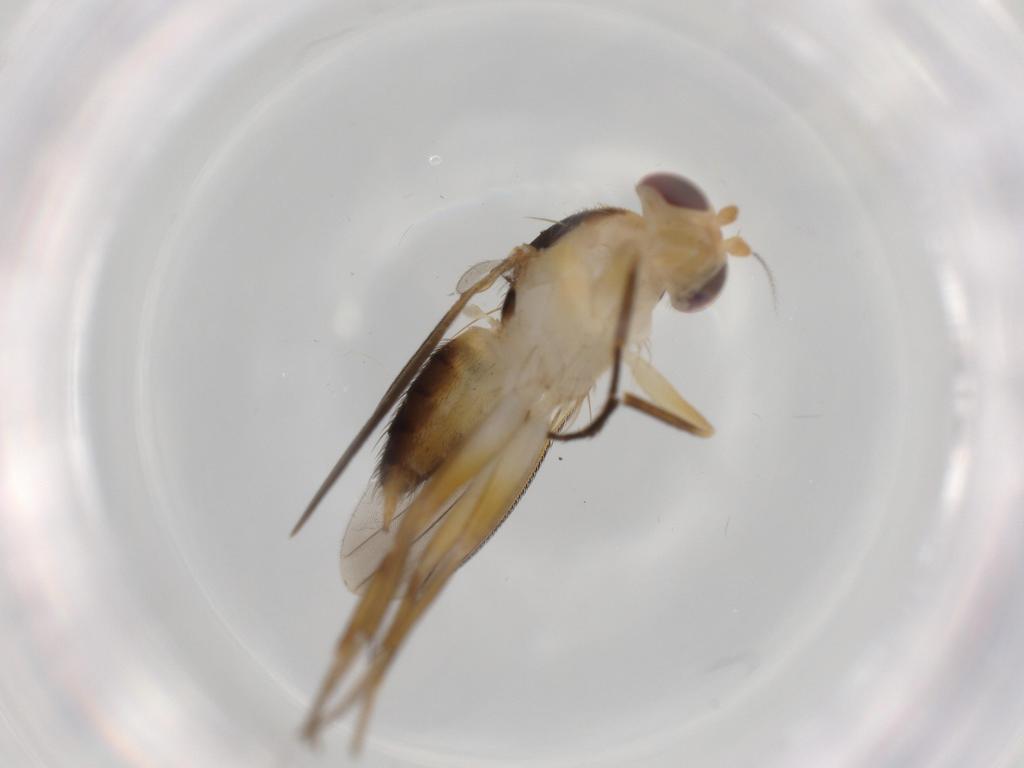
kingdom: Animalia
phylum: Arthropoda
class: Insecta
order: Diptera
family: Agromyzidae
